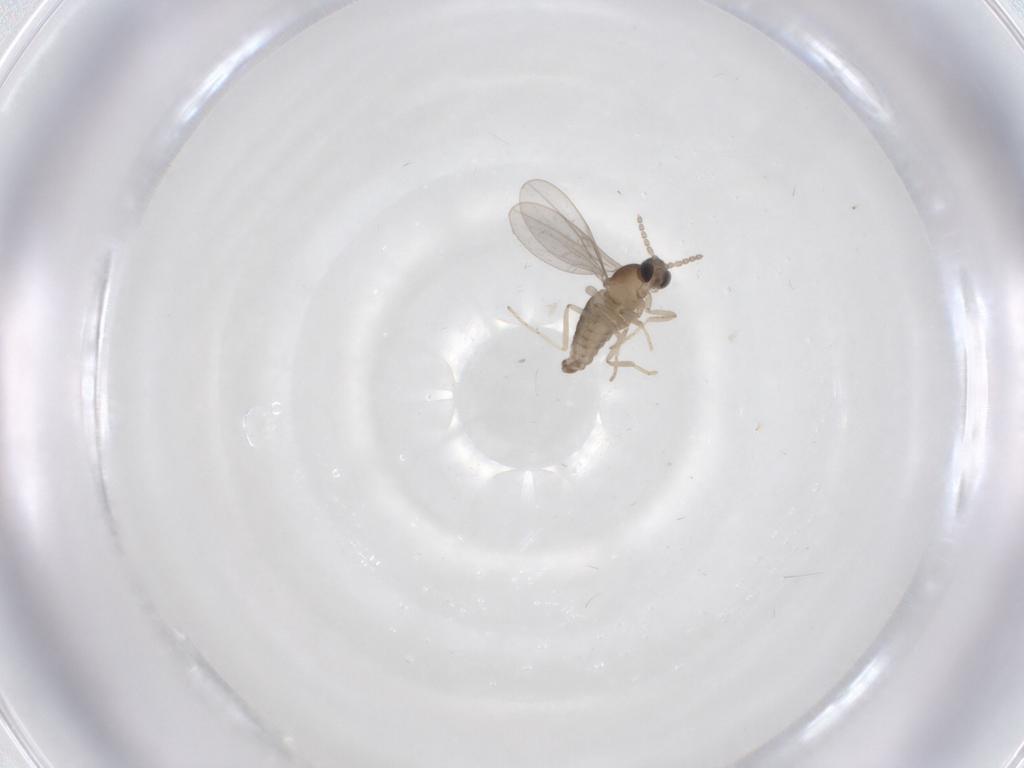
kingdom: Animalia
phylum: Arthropoda
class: Insecta
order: Diptera
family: Cecidomyiidae
